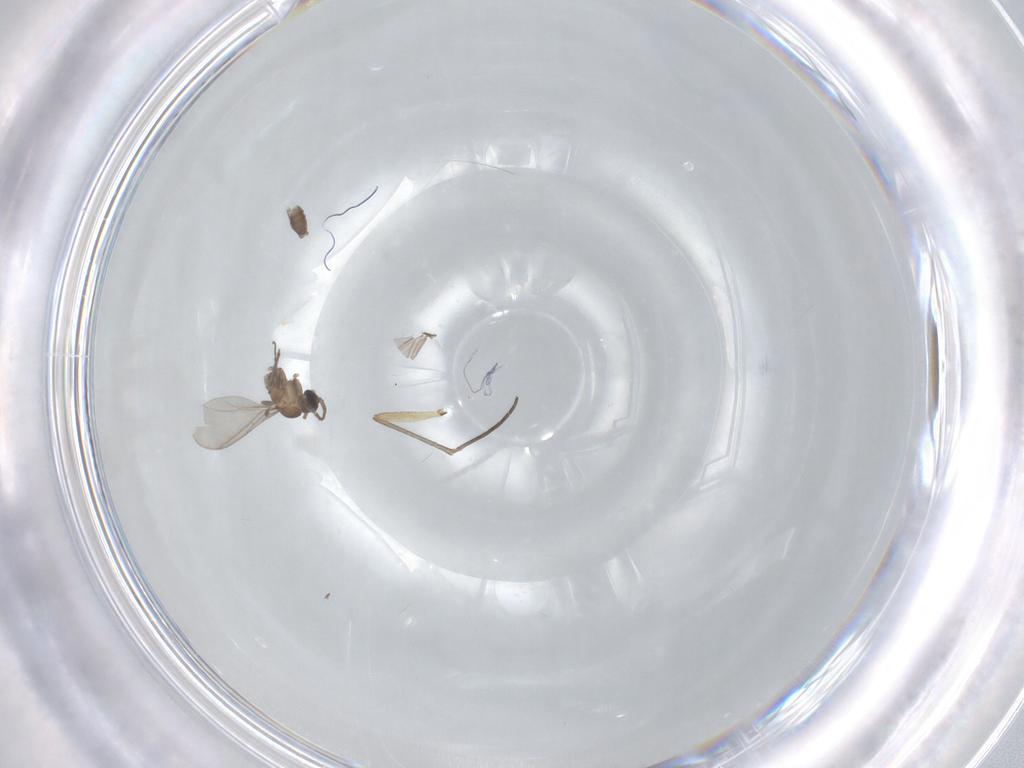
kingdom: Animalia
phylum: Arthropoda
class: Insecta
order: Diptera
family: Sciaridae
